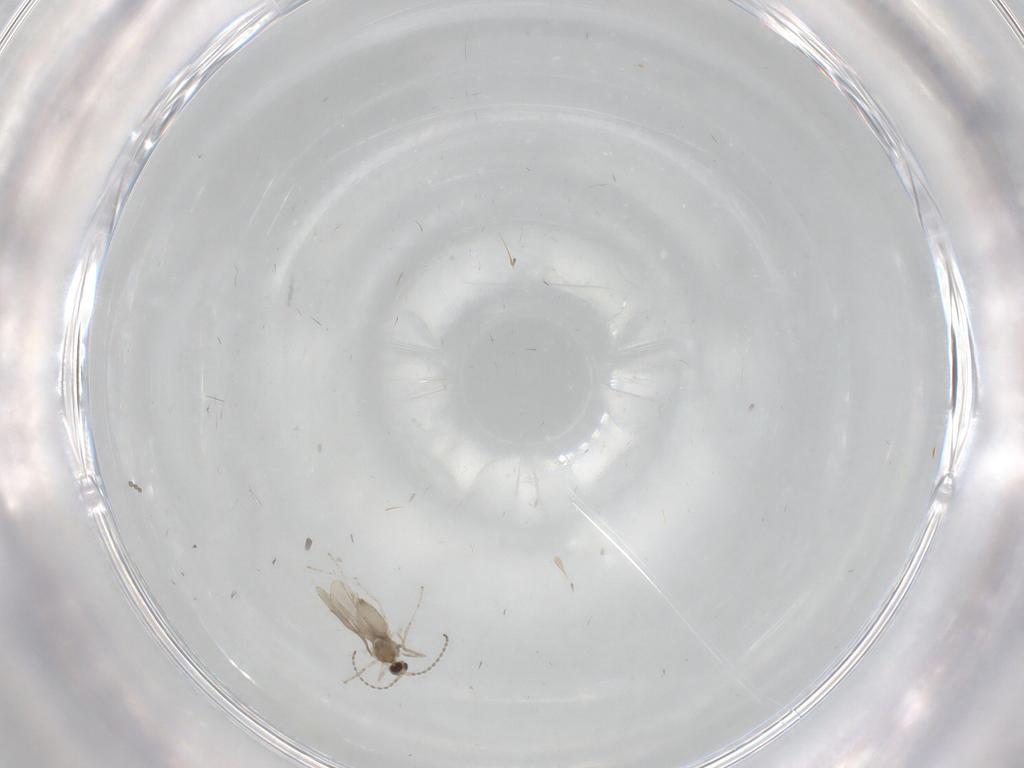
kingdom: Animalia
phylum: Arthropoda
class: Insecta
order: Diptera
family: Cecidomyiidae
